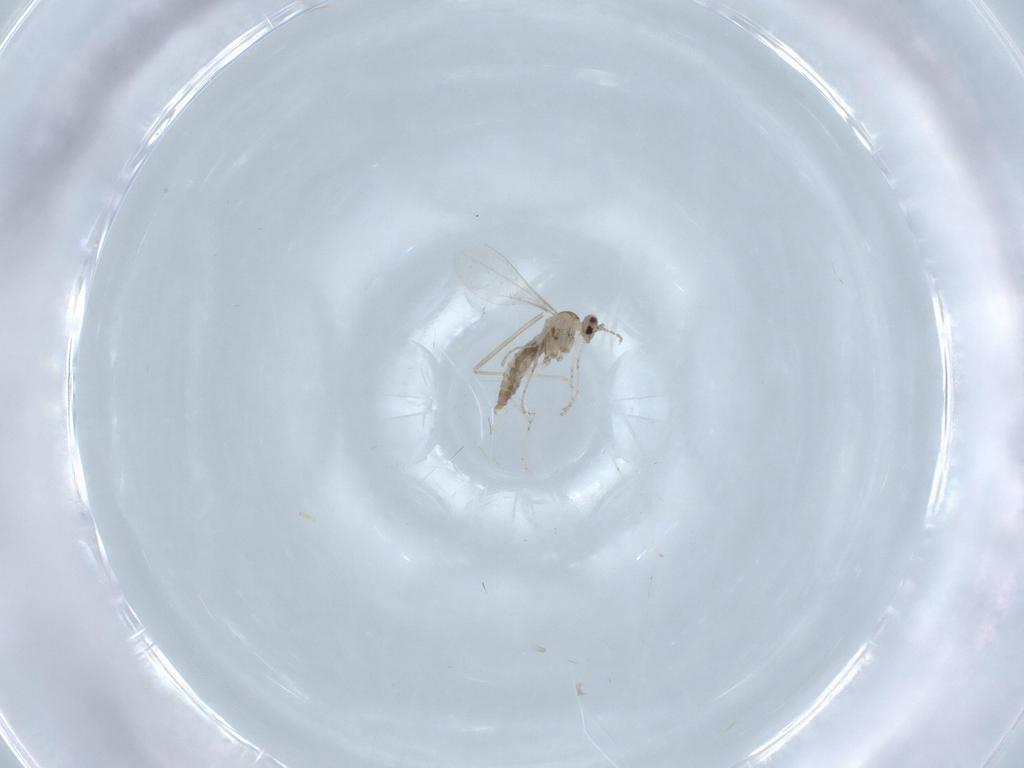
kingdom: Animalia
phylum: Arthropoda
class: Insecta
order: Diptera
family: Cecidomyiidae
